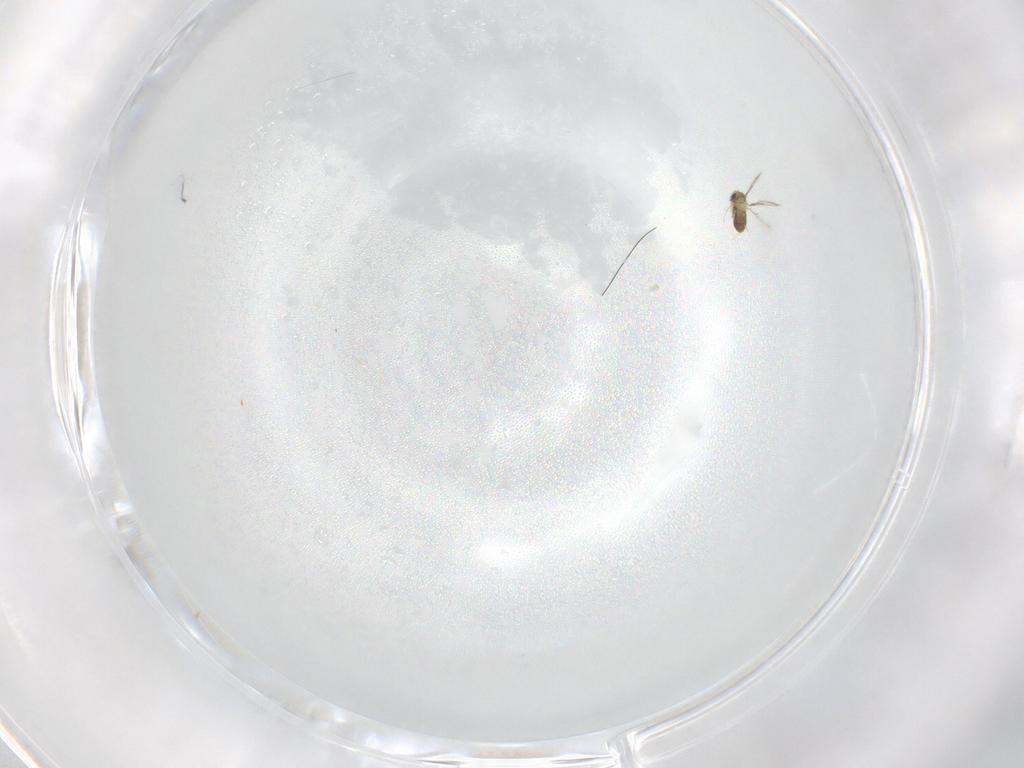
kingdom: Animalia
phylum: Arthropoda
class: Insecta
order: Hymenoptera
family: Trichogrammatidae
